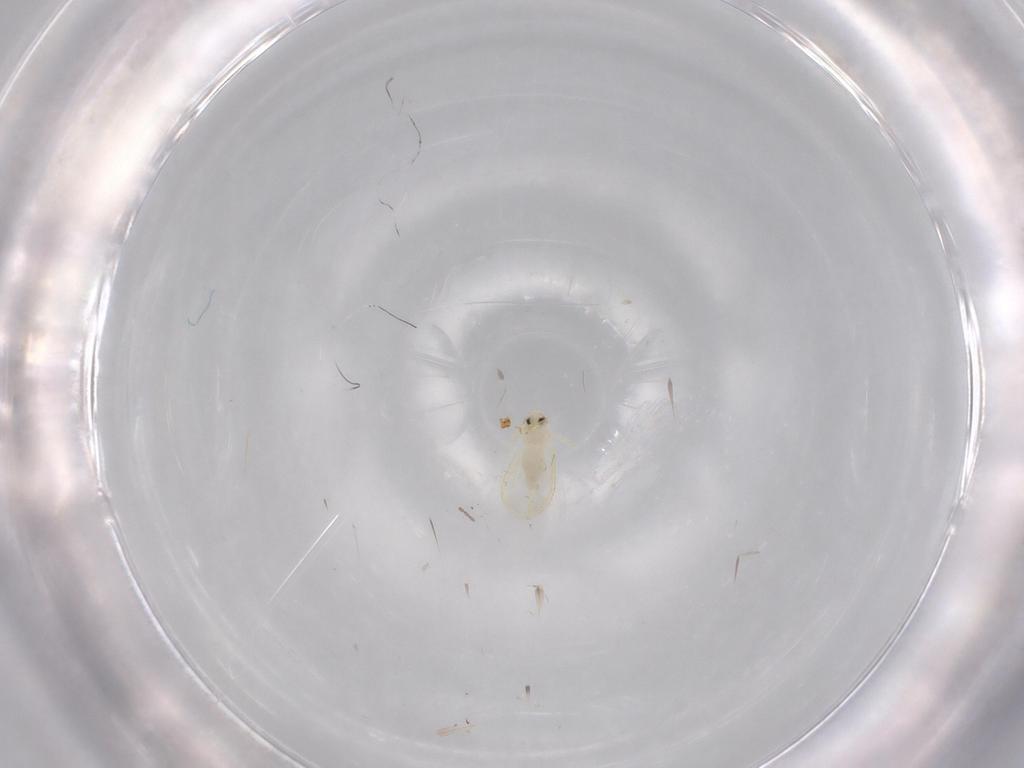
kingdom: Animalia
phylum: Arthropoda
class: Insecta
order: Hemiptera
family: Aleyrodidae
